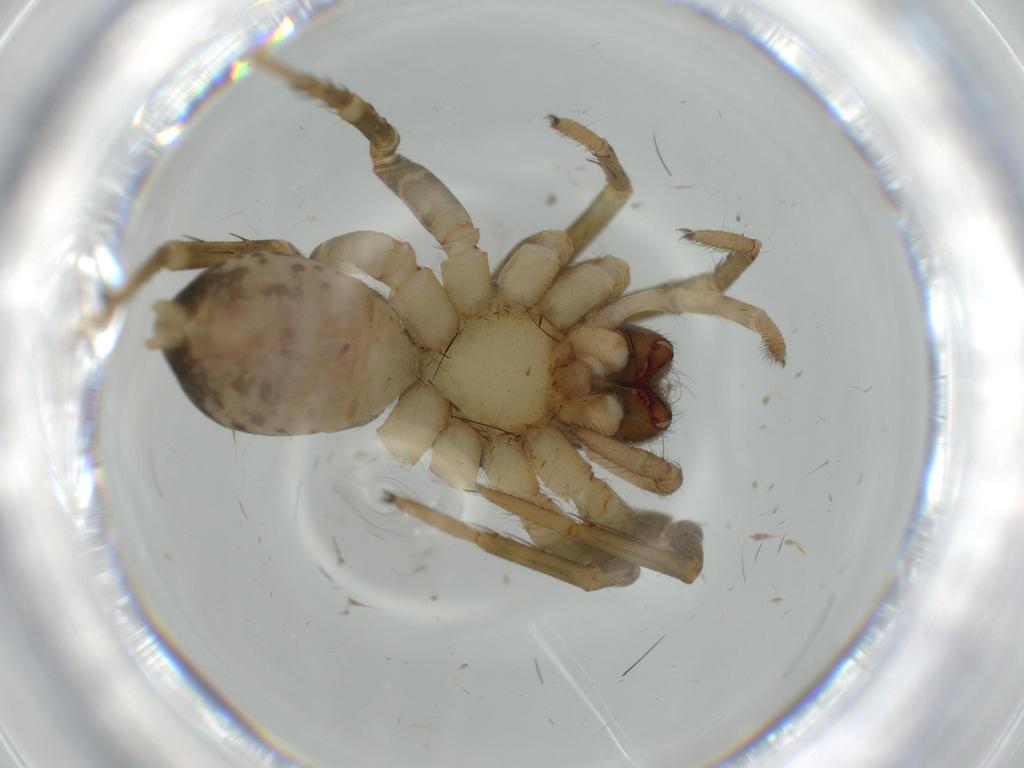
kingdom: Animalia
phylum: Arthropoda
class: Arachnida
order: Araneae
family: Lycosidae
